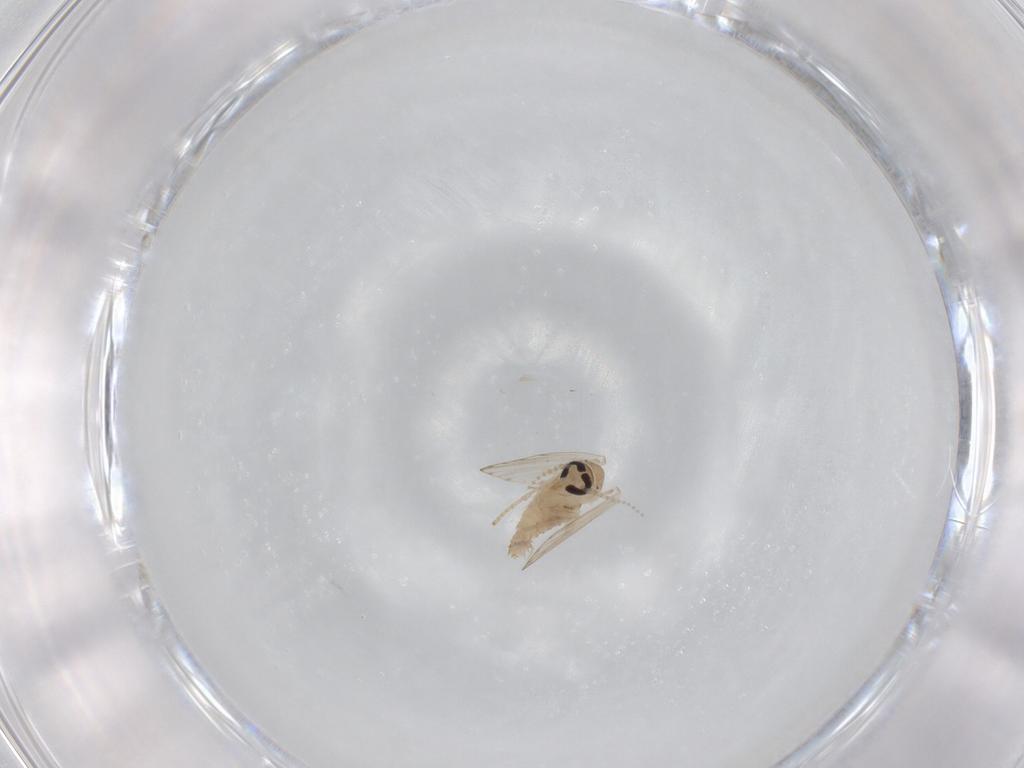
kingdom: Animalia
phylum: Arthropoda
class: Insecta
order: Diptera
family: Psychodidae
